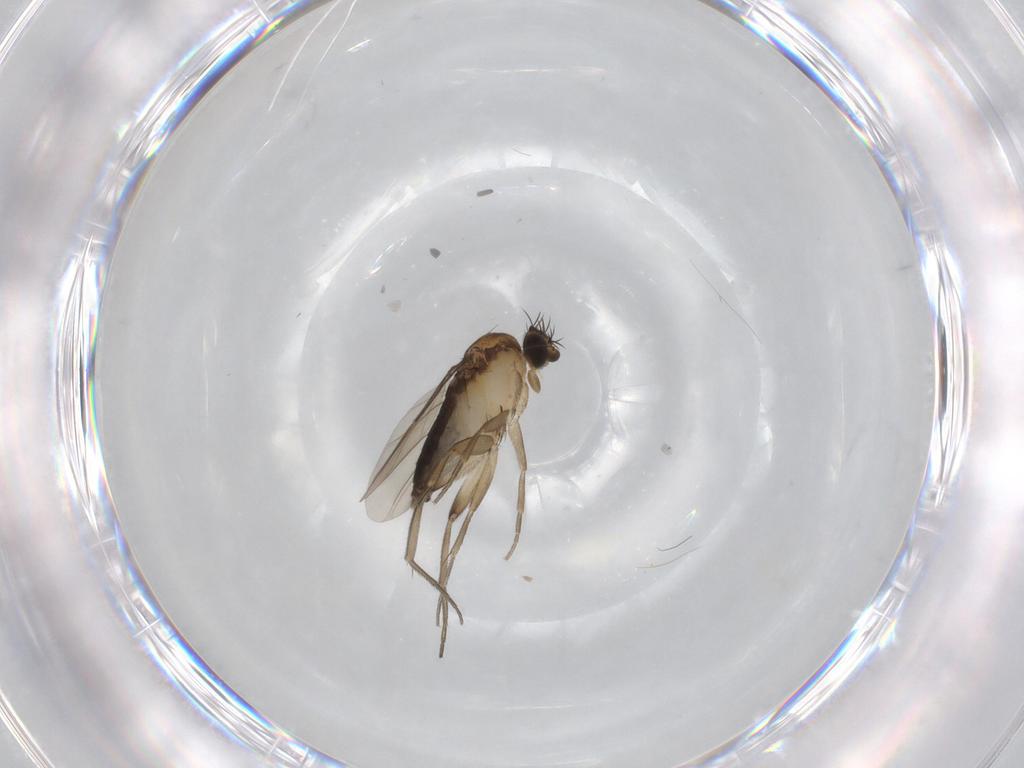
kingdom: Animalia
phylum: Arthropoda
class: Insecta
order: Diptera
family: Phoridae
